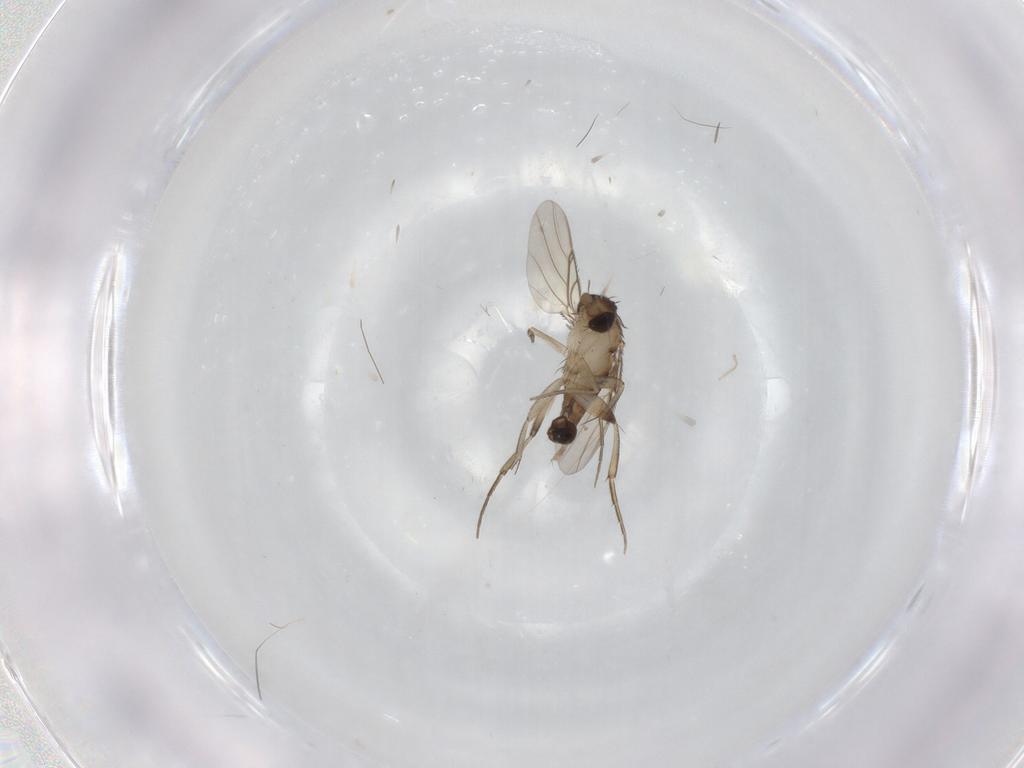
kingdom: Animalia
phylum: Arthropoda
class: Insecta
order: Diptera
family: Phoridae
